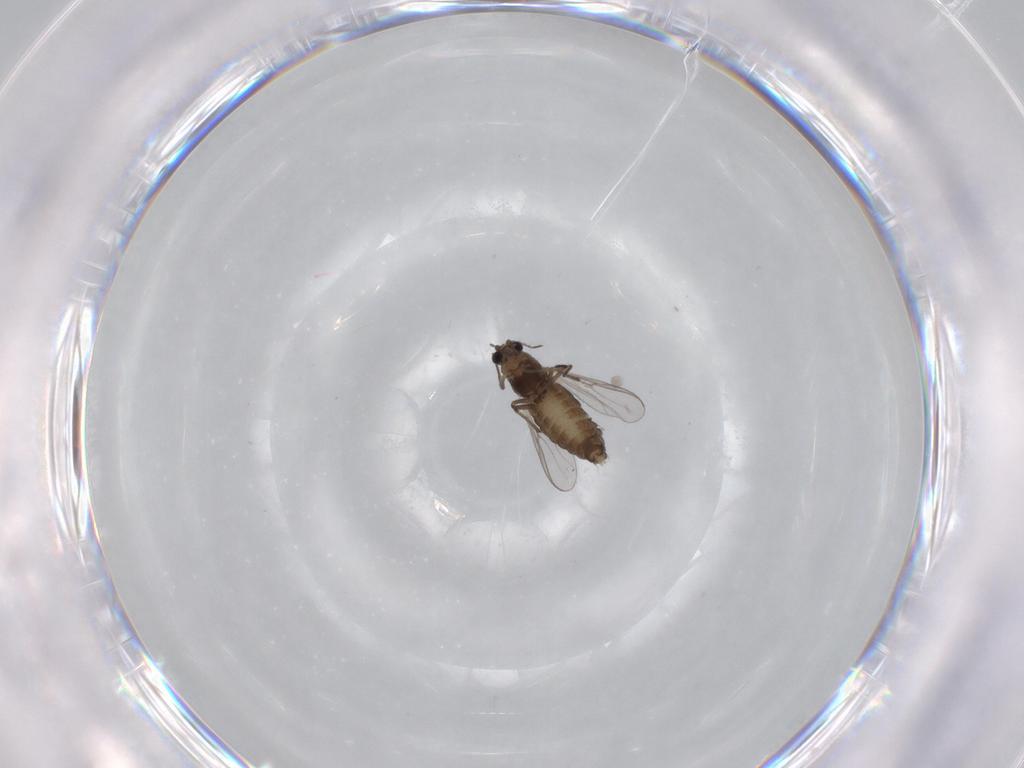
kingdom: Animalia
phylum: Arthropoda
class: Insecta
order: Diptera
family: Chironomidae
